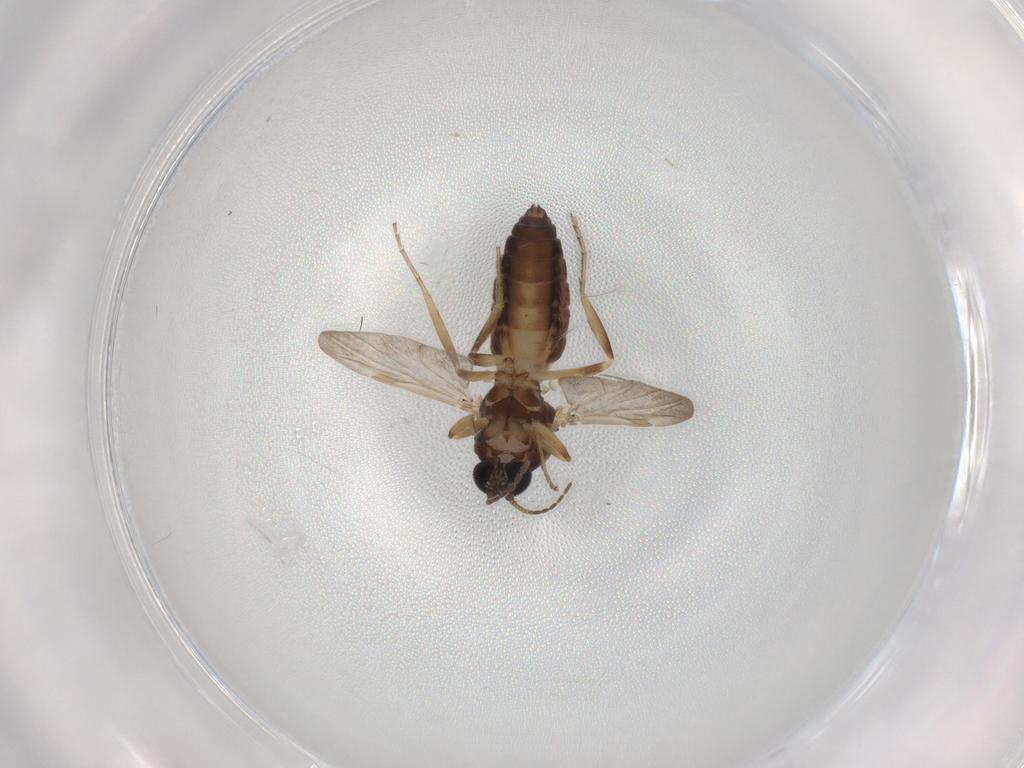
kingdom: Animalia
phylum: Arthropoda
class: Insecta
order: Diptera
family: Ceratopogonidae
